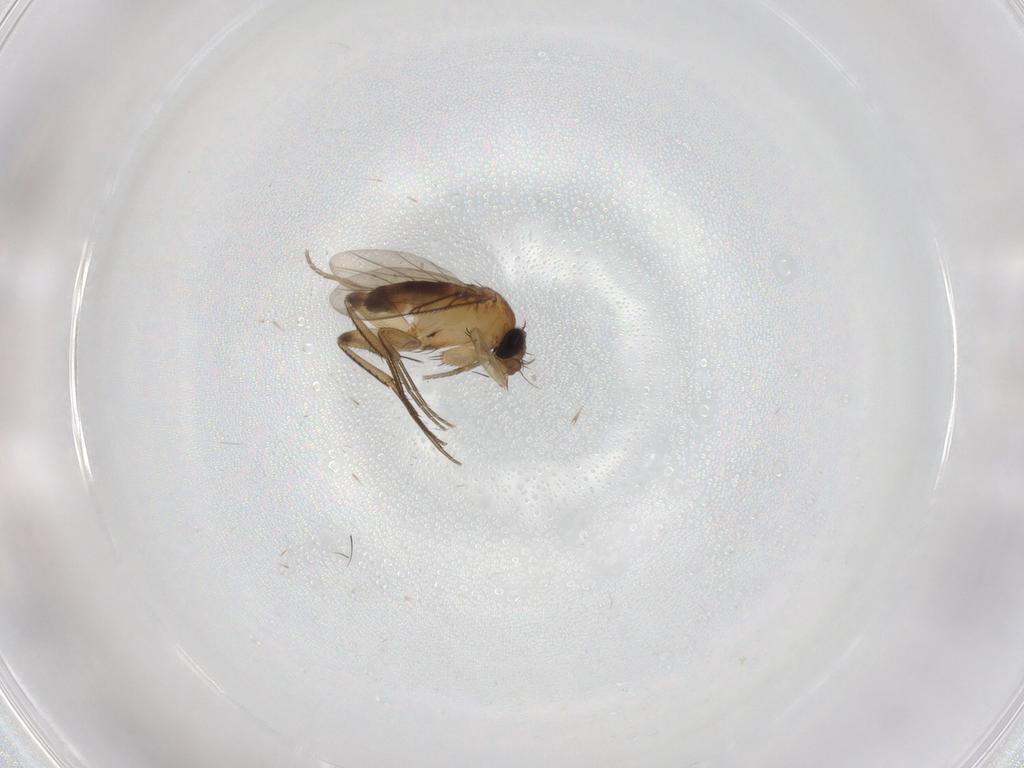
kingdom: Animalia
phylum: Arthropoda
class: Insecta
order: Diptera
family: Phoridae
